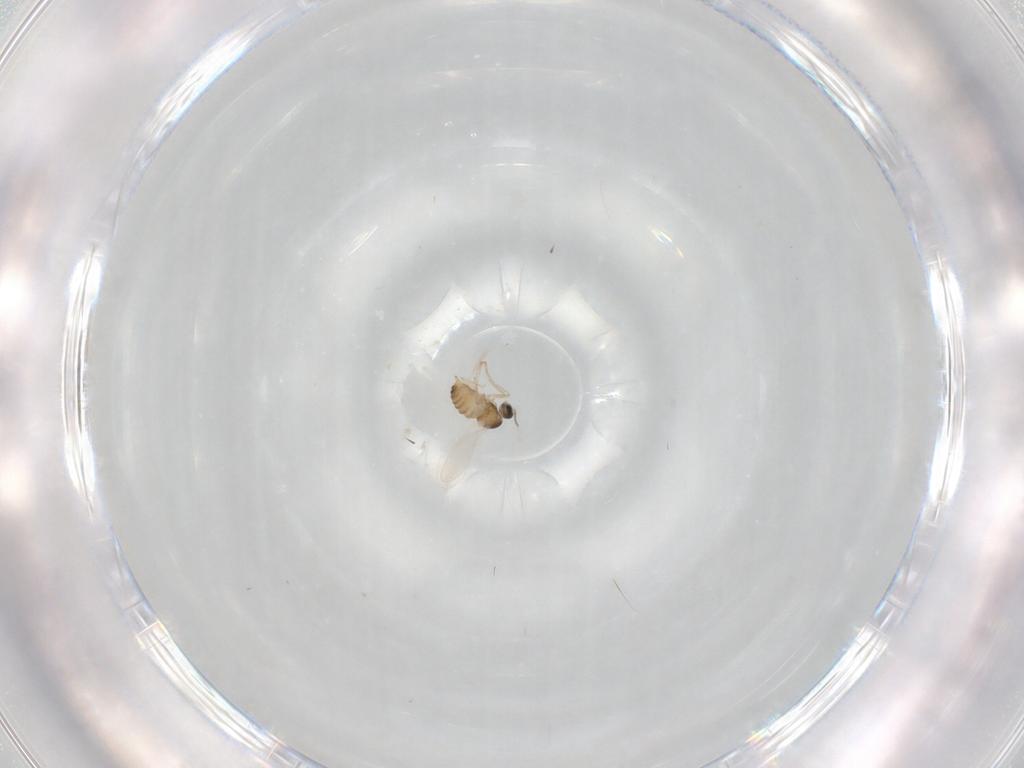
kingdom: Animalia
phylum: Arthropoda
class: Insecta
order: Diptera
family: Cecidomyiidae
